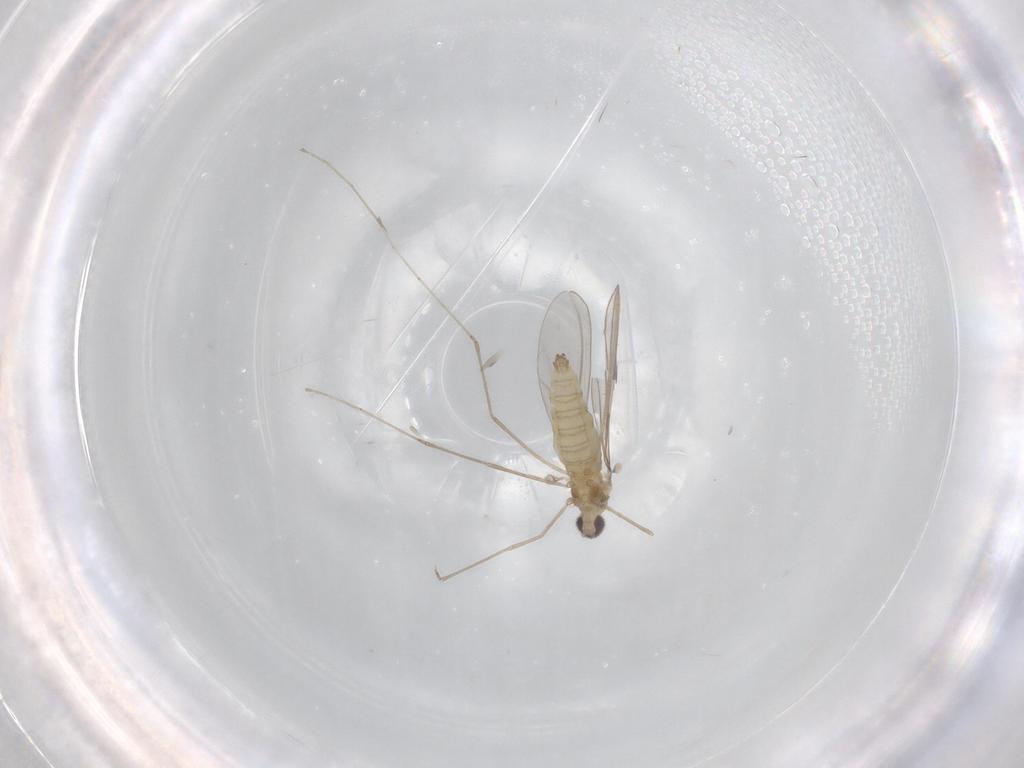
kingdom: Animalia
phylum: Arthropoda
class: Insecta
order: Diptera
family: Cecidomyiidae
